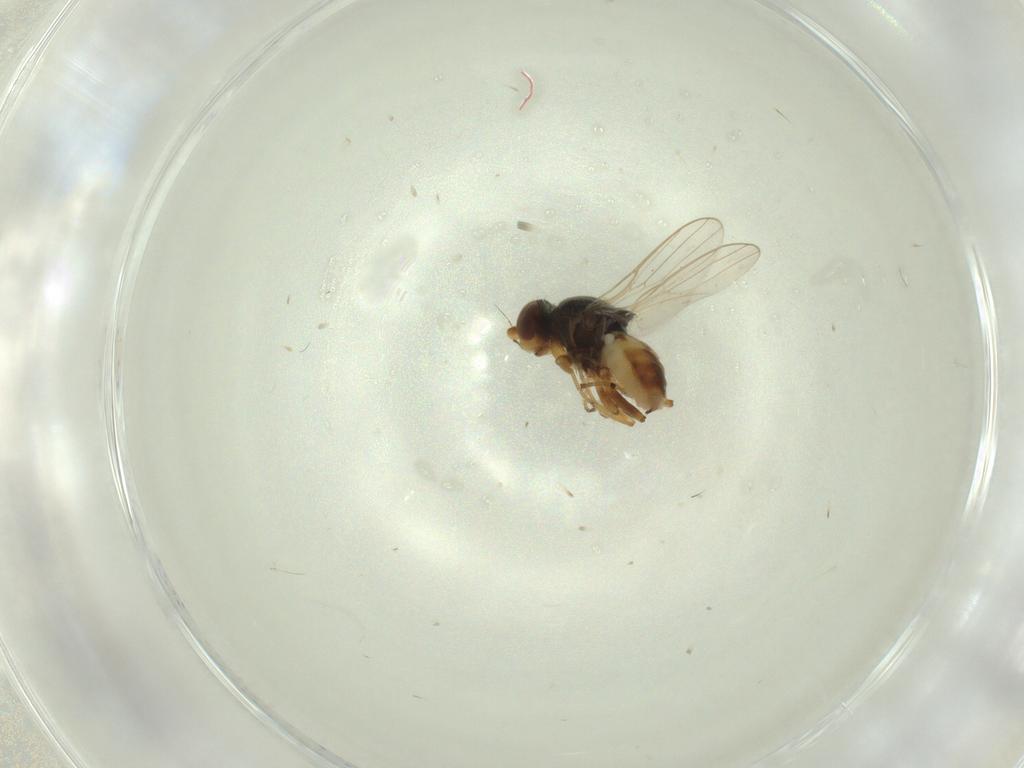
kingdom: Animalia
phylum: Arthropoda
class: Insecta
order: Diptera
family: Chloropidae
